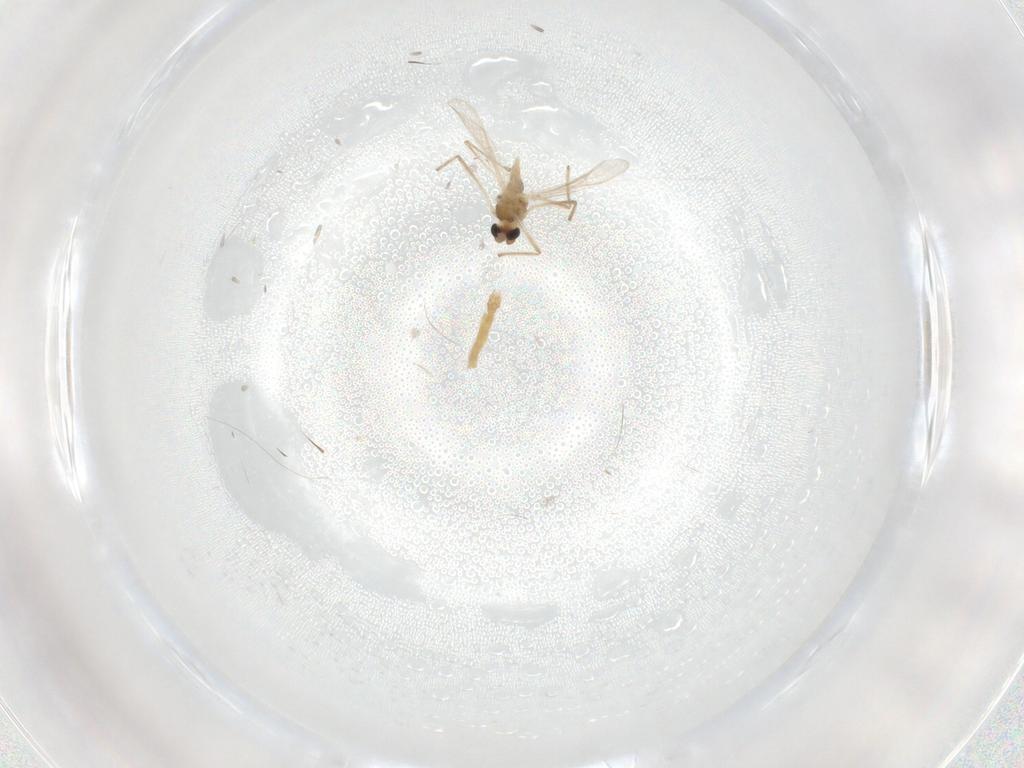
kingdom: Animalia
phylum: Arthropoda
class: Insecta
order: Diptera
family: Chironomidae
